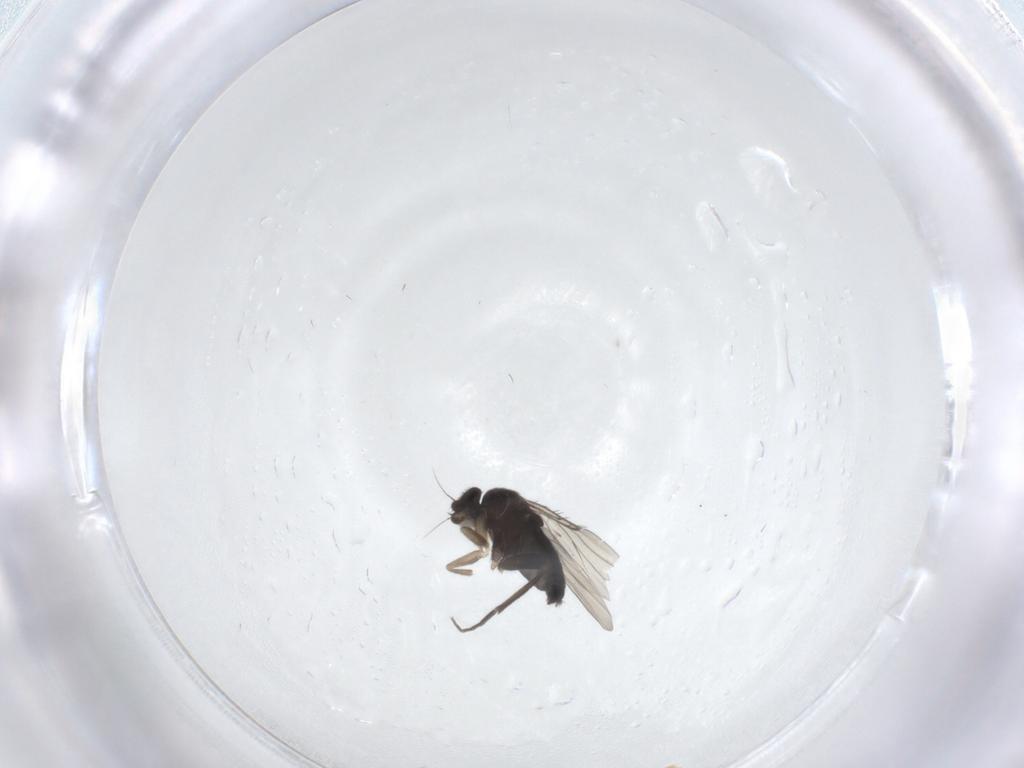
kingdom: Animalia
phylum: Arthropoda
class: Insecta
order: Diptera
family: Phoridae
